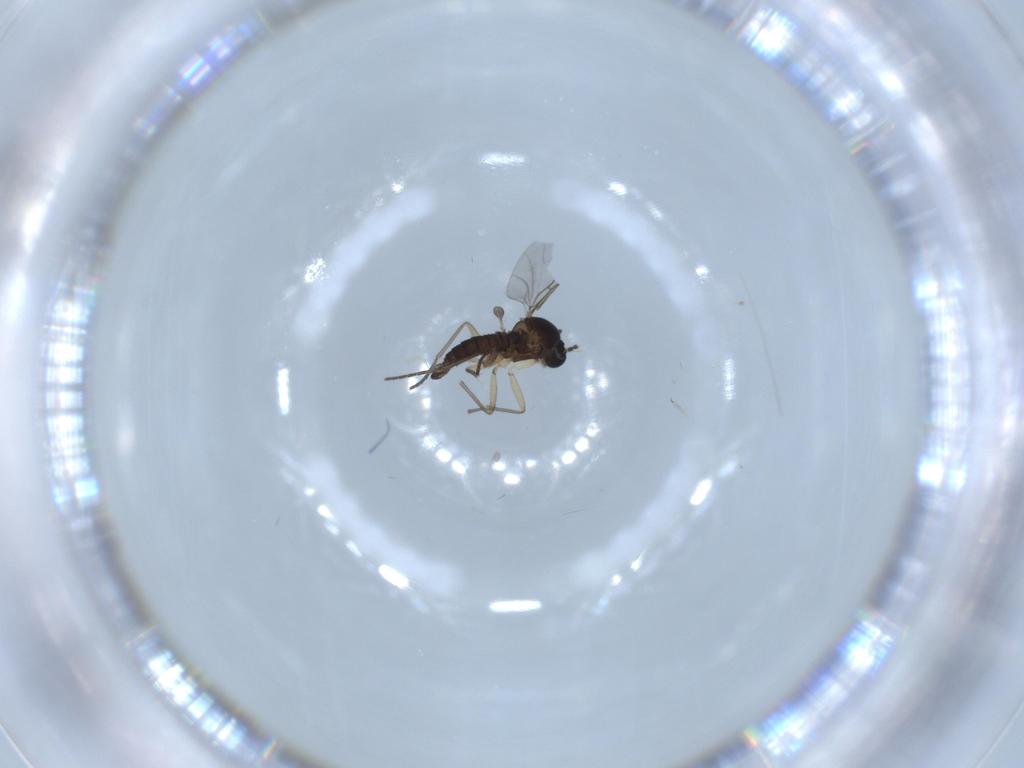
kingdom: Animalia
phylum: Arthropoda
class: Insecta
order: Diptera
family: Sciaridae
